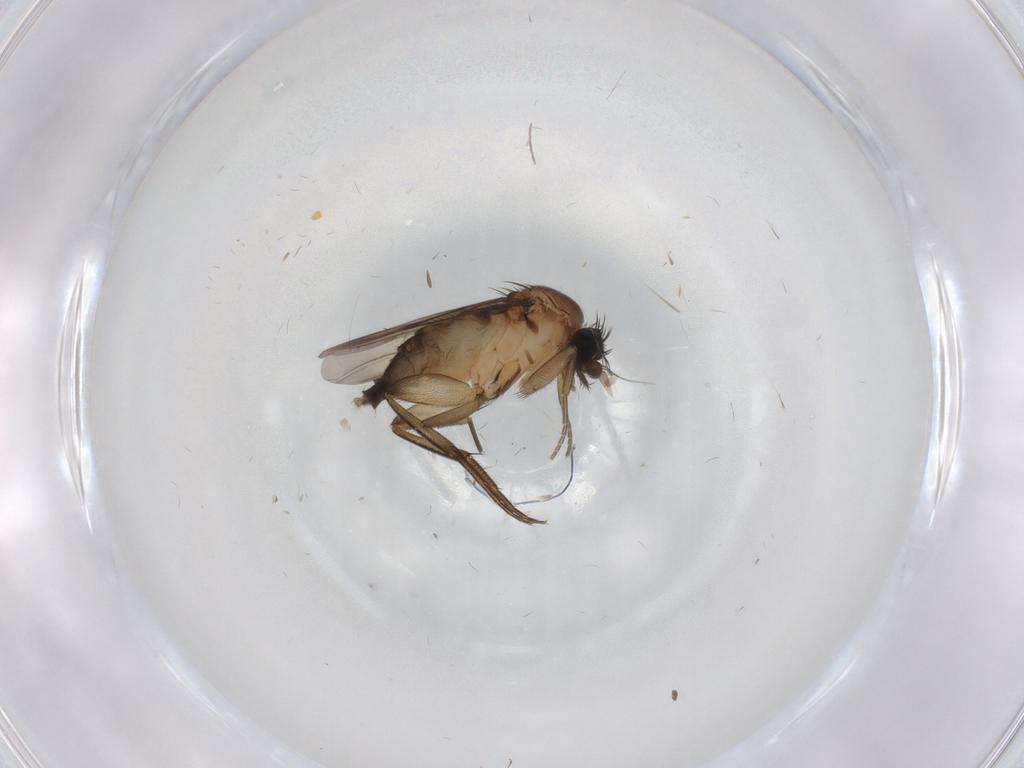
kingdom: Animalia
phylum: Arthropoda
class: Insecta
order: Diptera
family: Phoridae
